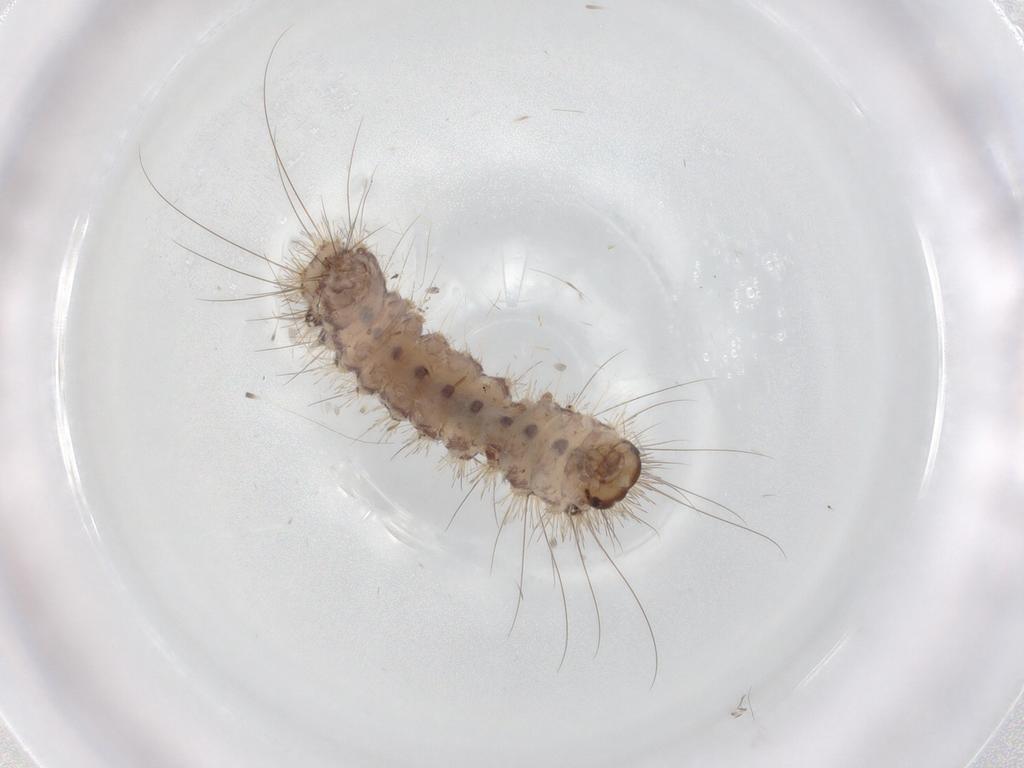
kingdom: Animalia
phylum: Arthropoda
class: Insecta
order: Lepidoptera
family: Erebidae
